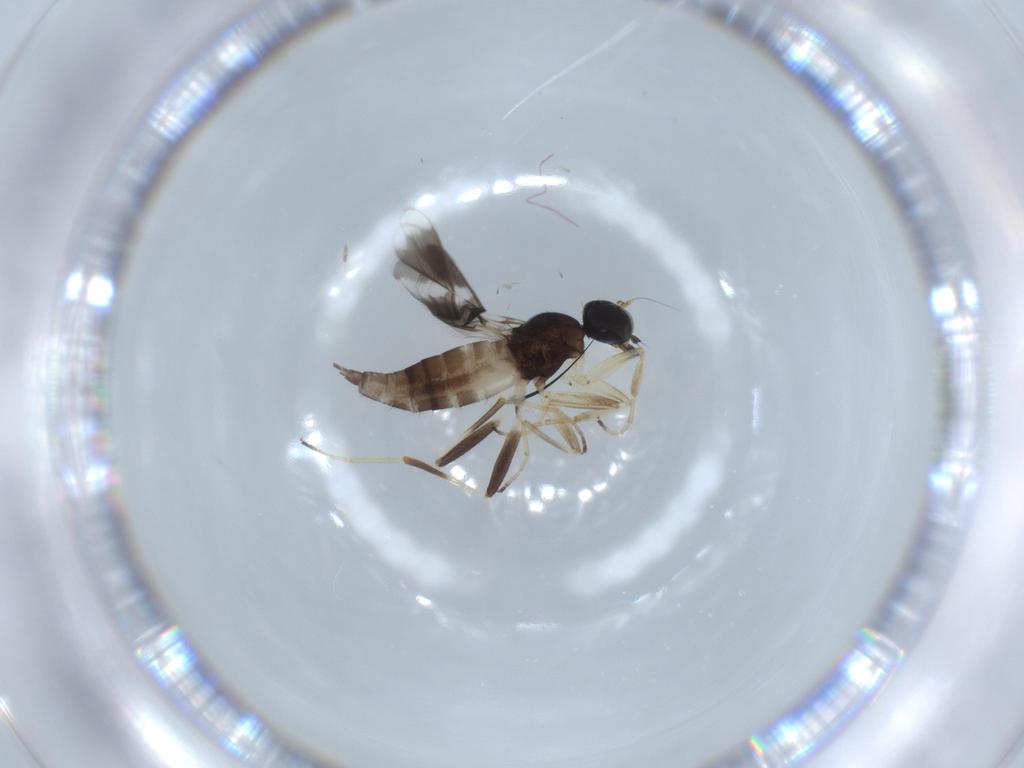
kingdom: Animalia
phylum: Arthropoda
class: Insecta
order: Diptera
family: Hybotidae
